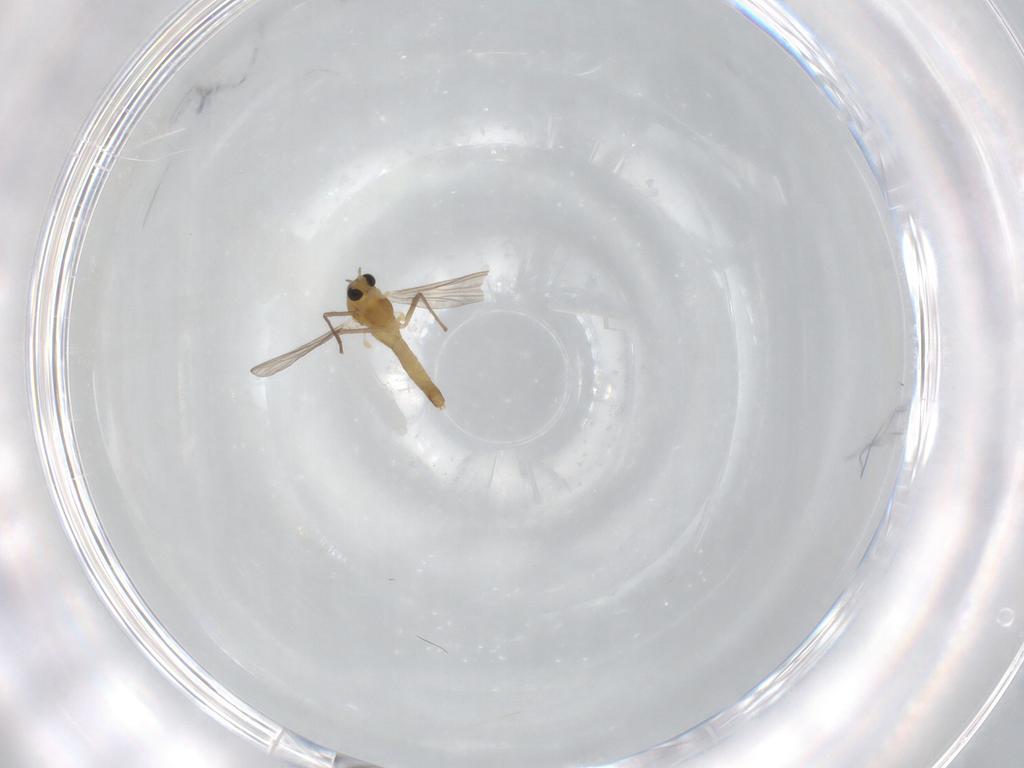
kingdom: Animalia
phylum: Arthropoda
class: Insecta
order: Diptera
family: Chironomidae
